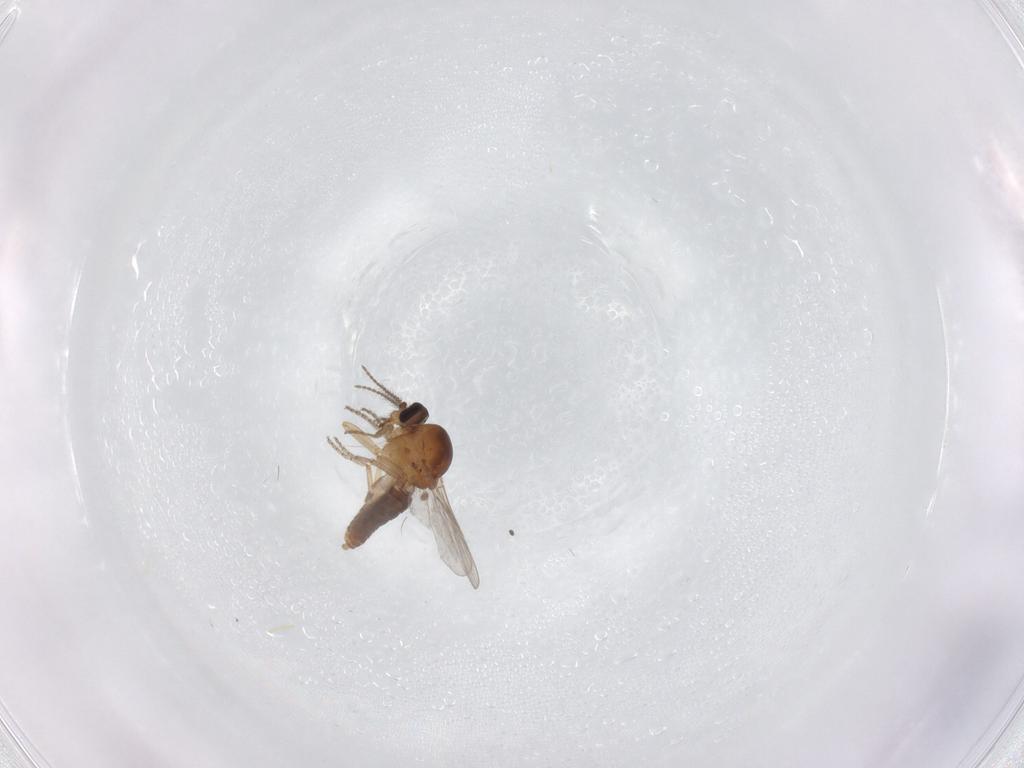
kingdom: Animalia
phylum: Arthropoda
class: Insecta
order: Diptera
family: Ceratopogonidae
